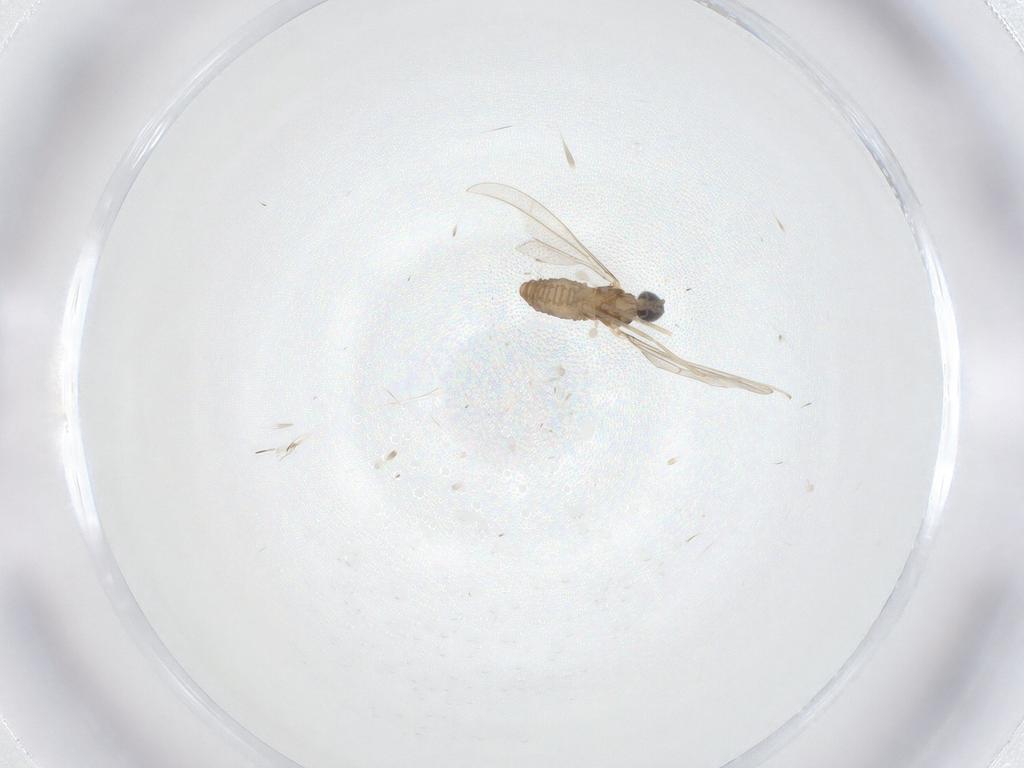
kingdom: Animalia
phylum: Arthropoda
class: Insecta
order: Diptera
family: Cecidomyiidae
